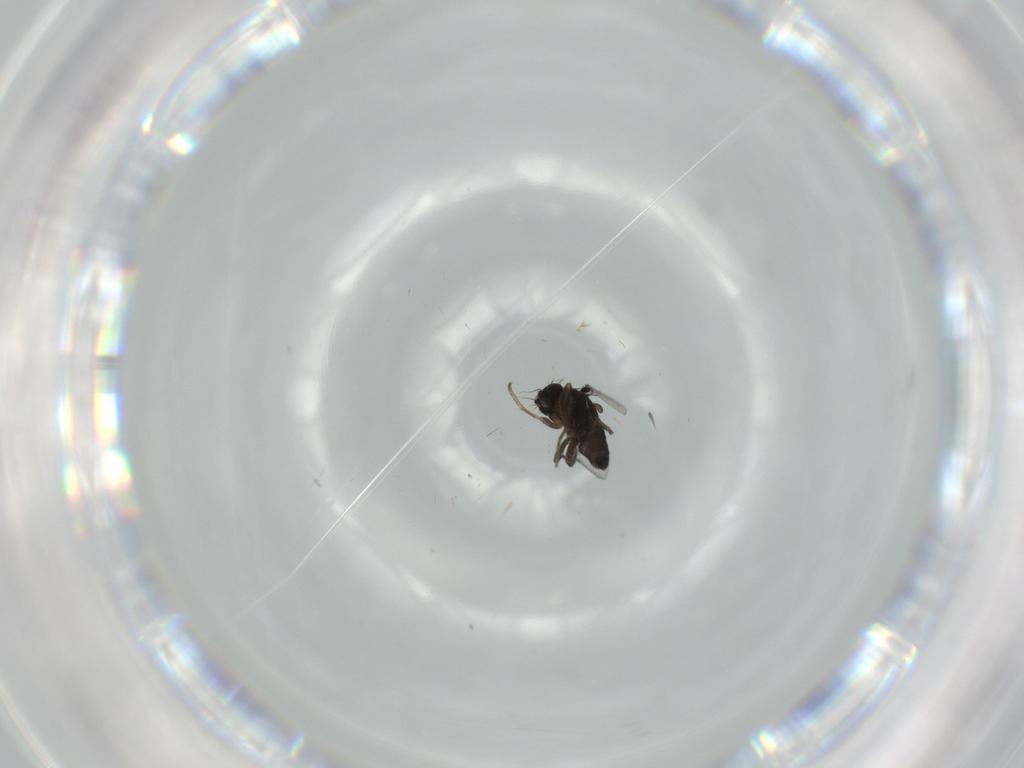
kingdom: Animalia
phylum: Arthropoda
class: Insecta
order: Diptera
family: Phoridae
